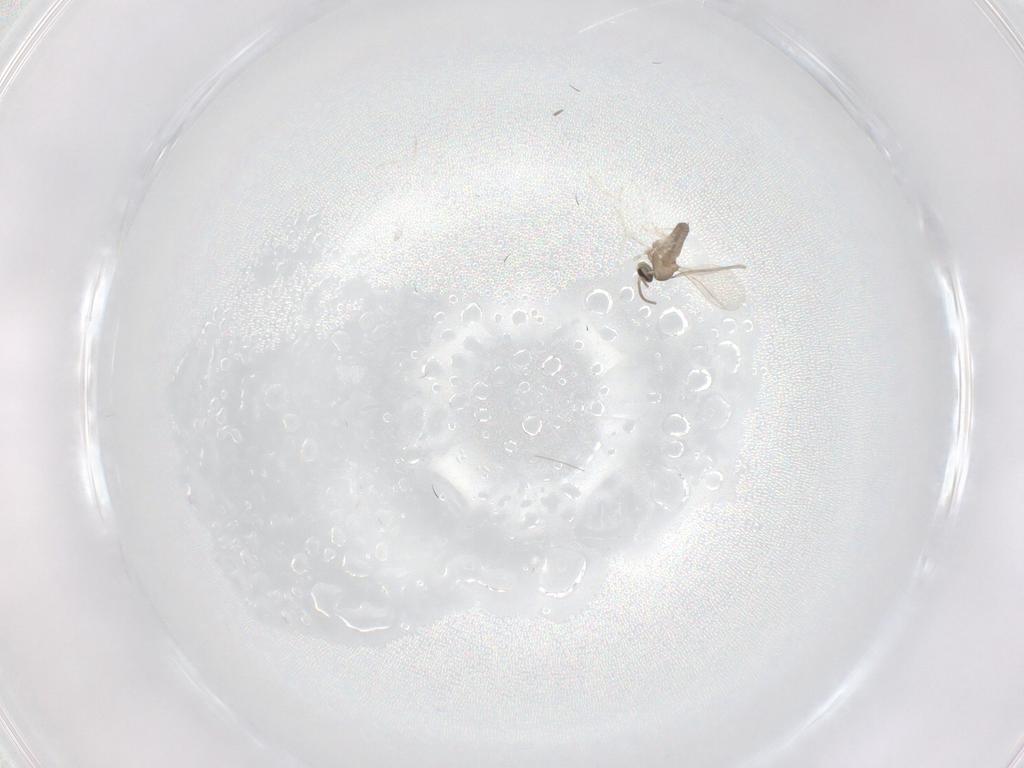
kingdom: Animalia
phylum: Arthropoda
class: Insecta
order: Diptera
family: Cecidomyiidae
